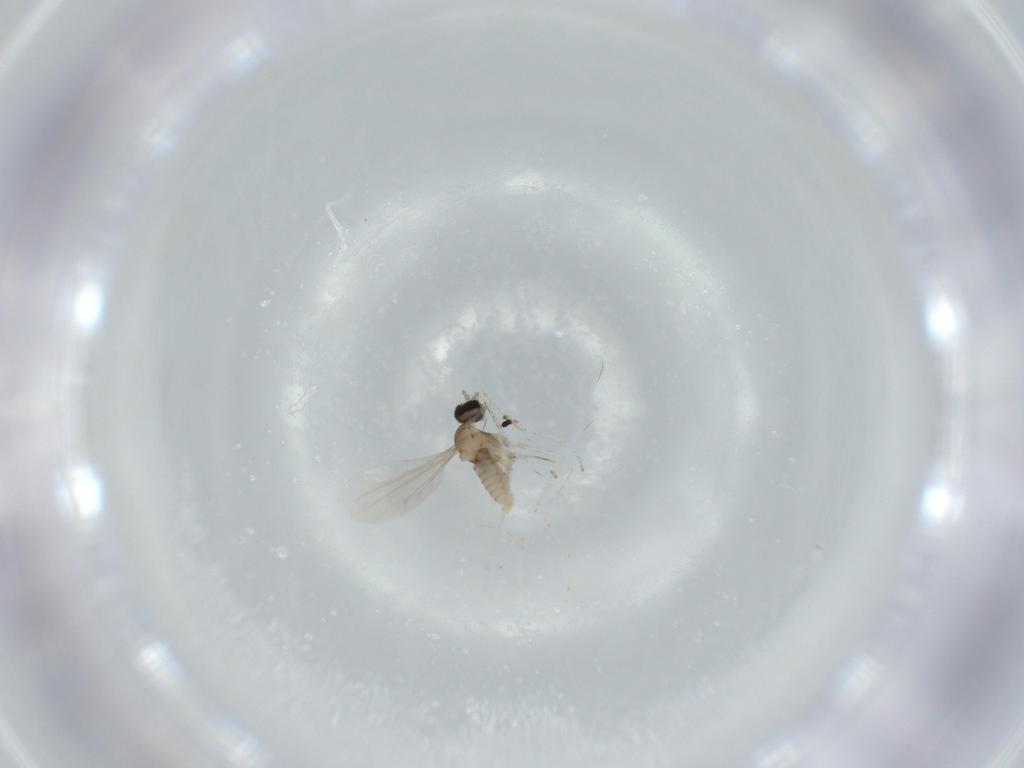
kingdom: Animalia
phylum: Arthropoda
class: Insecta
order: Diptera
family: Cecidomyiidae
